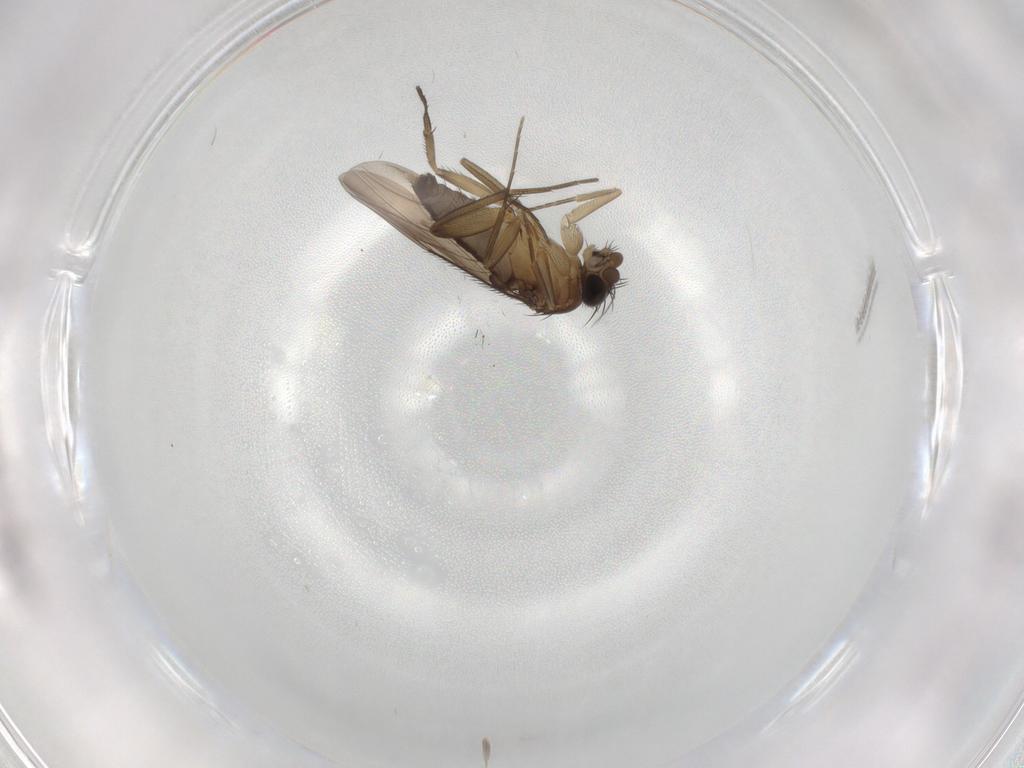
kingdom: Animalia
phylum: Arthropoda
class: Insecta
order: Diptera
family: Phoridae
